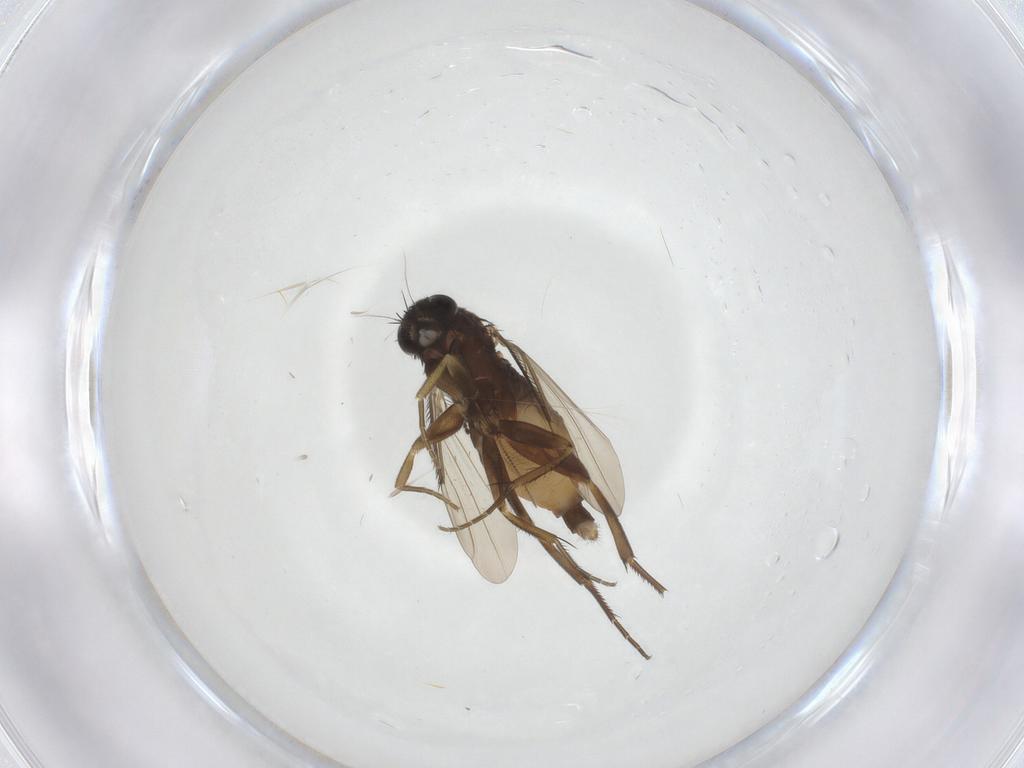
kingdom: Animalia
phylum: Arthropoda
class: Insecta
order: Diptera
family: Phoridae
